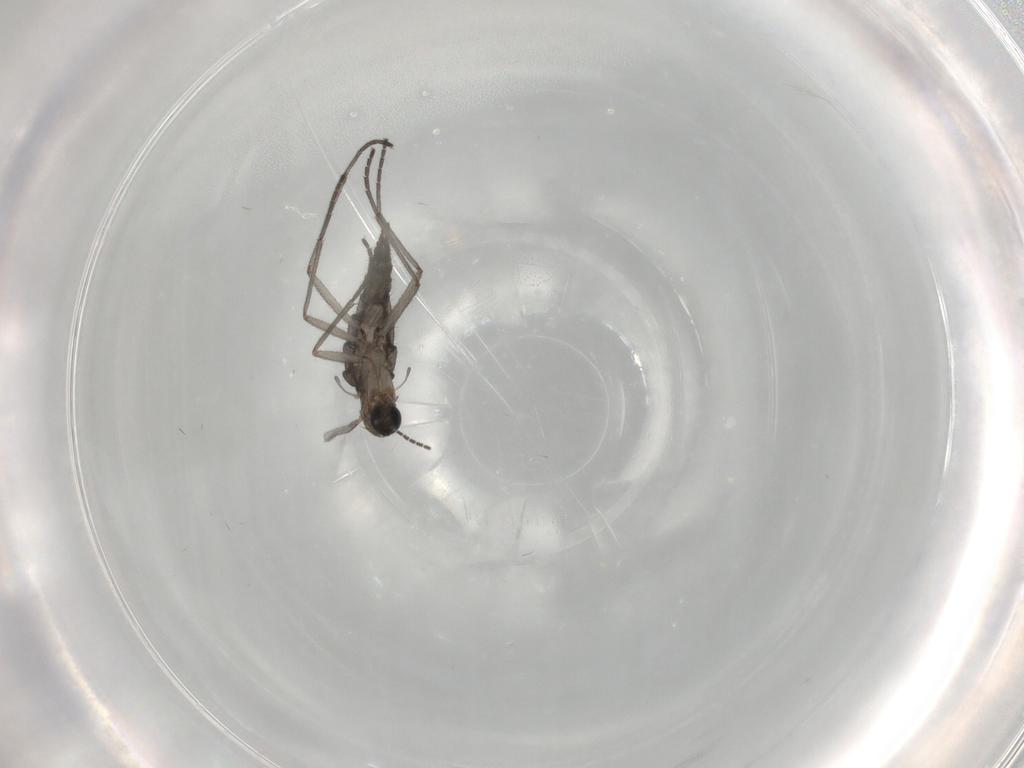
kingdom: Animalia
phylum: Arthropoda
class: Insecta
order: Diptera
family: Sciaridae
